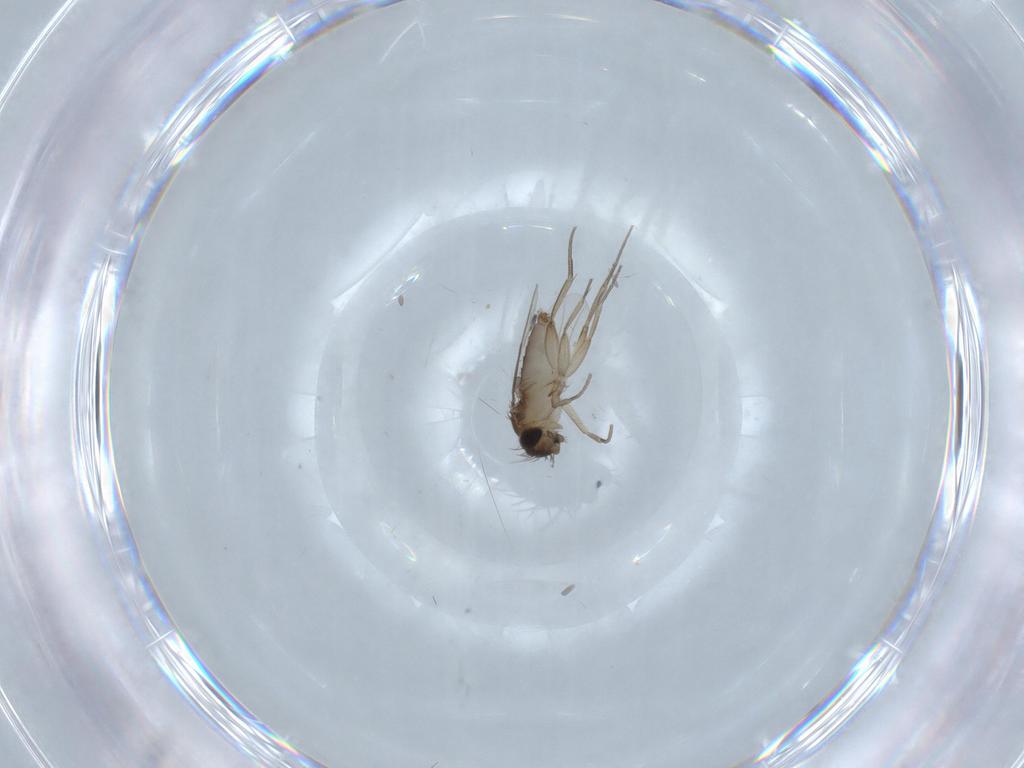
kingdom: Animalia
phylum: Arthropoda
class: Insecta
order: Diptera
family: Phoridae
